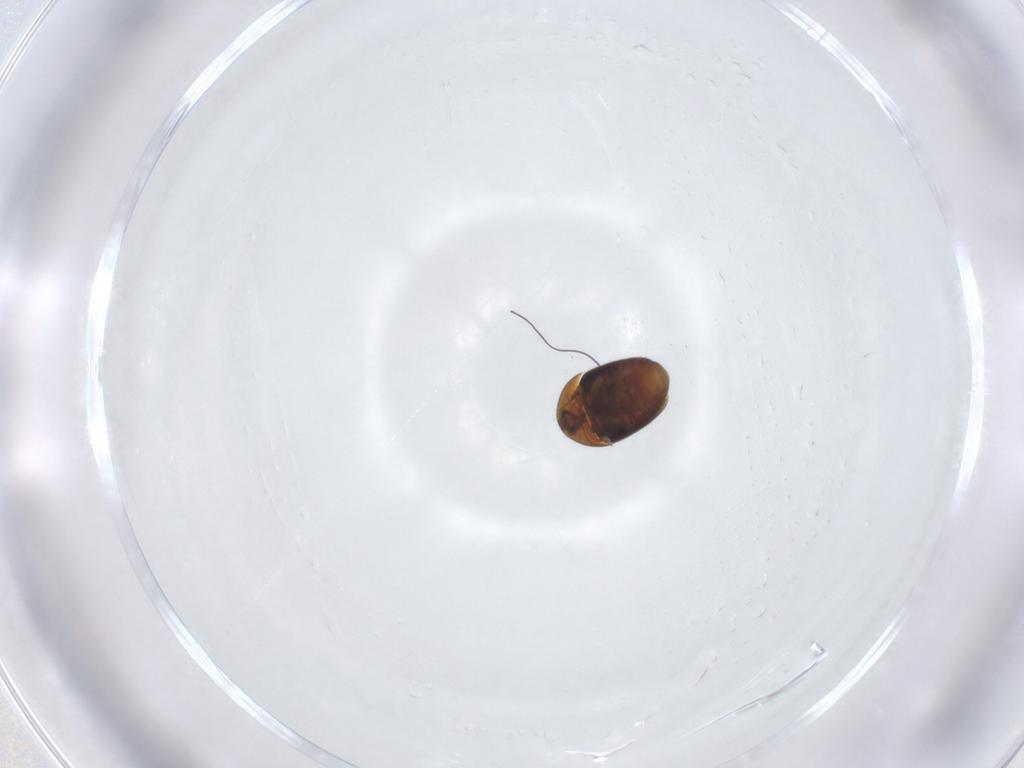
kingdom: Animalia
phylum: Arthropoda
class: Insecta
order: Coleoptera
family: Corylophidae
